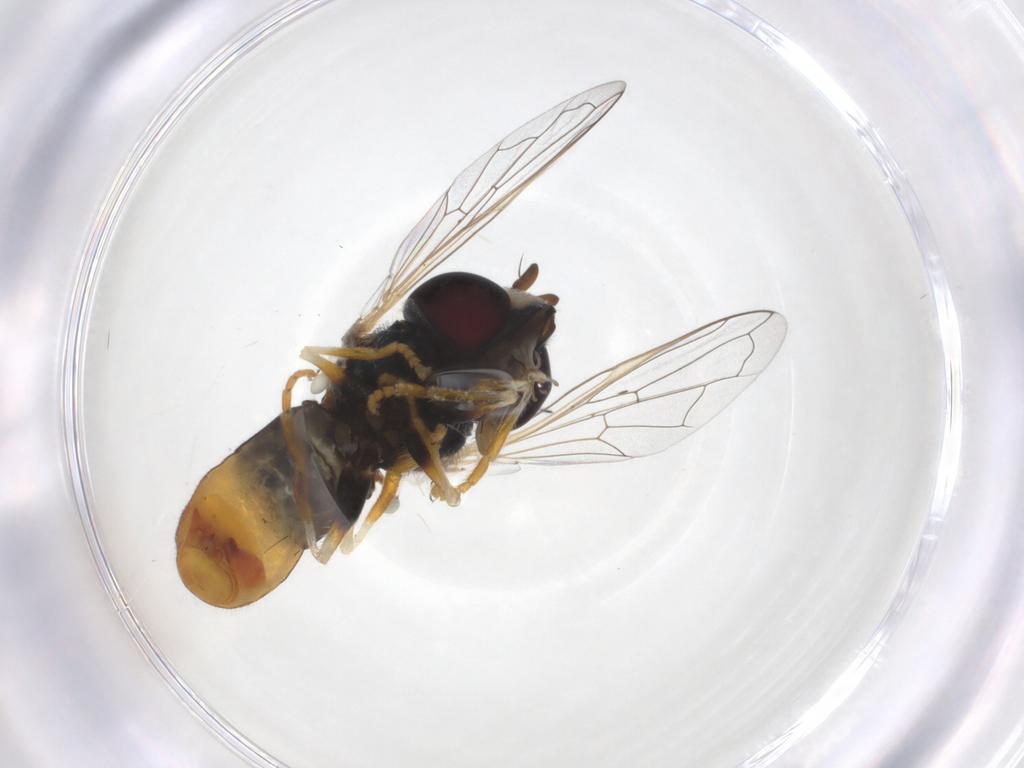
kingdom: Animalia
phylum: Arthropoda
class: Insecta
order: Diptera
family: Syrphidae
